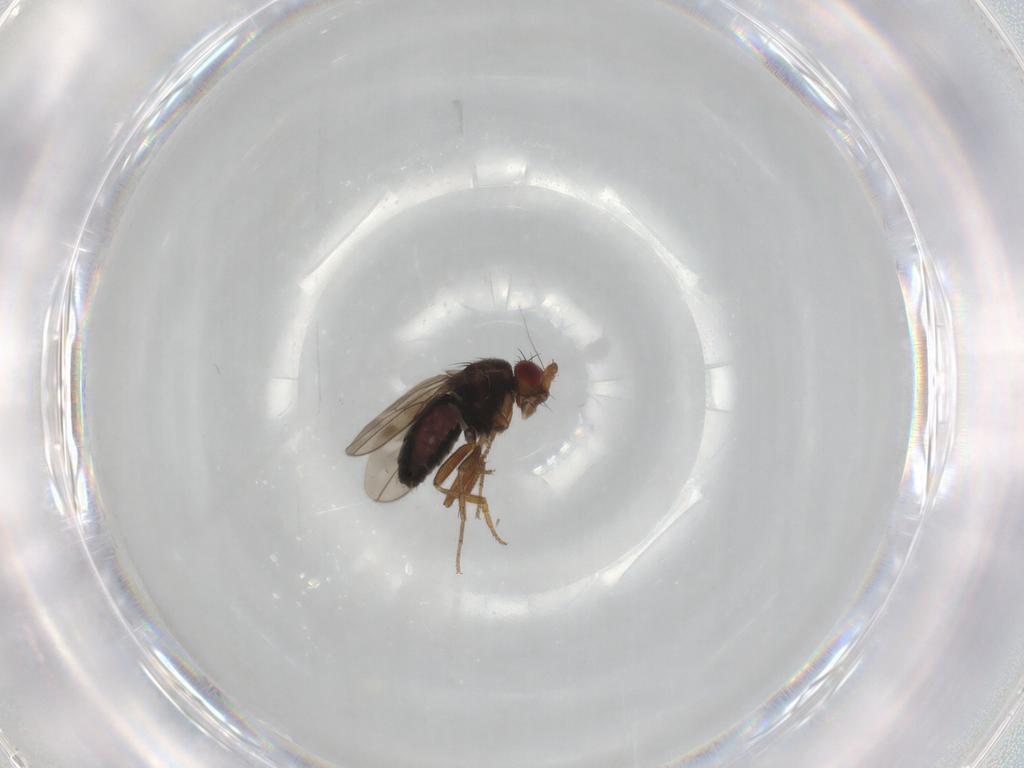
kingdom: Animalia
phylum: Arthropoda
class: Insecta
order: Diptera
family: Sphaeroceridae
